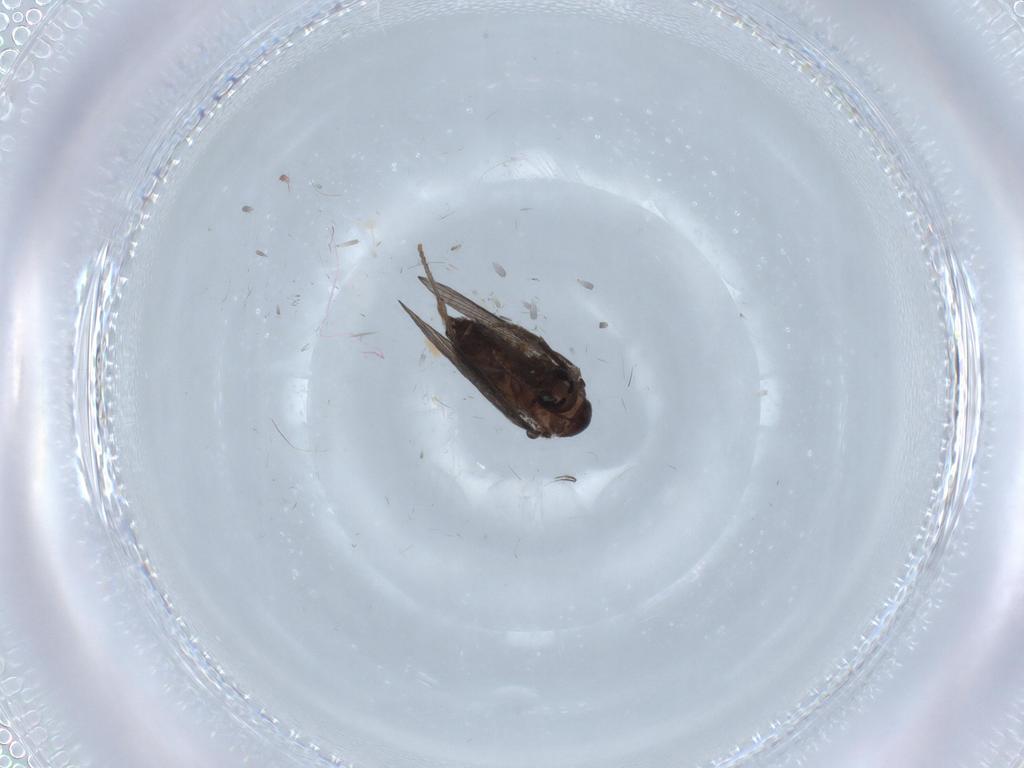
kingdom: Animalia
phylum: Arthropoda
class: Insecta
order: Diptera
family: Psychodidae
